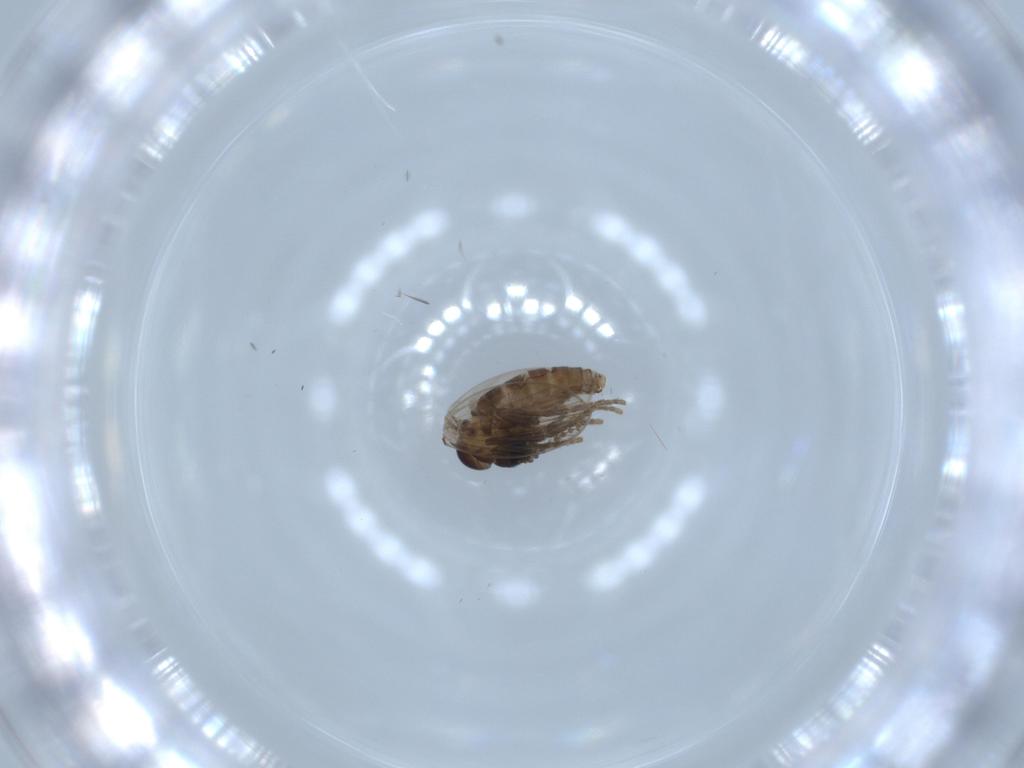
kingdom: Animalia
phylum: Arthropoda
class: Insecta
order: Diptera
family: Psychodidae
